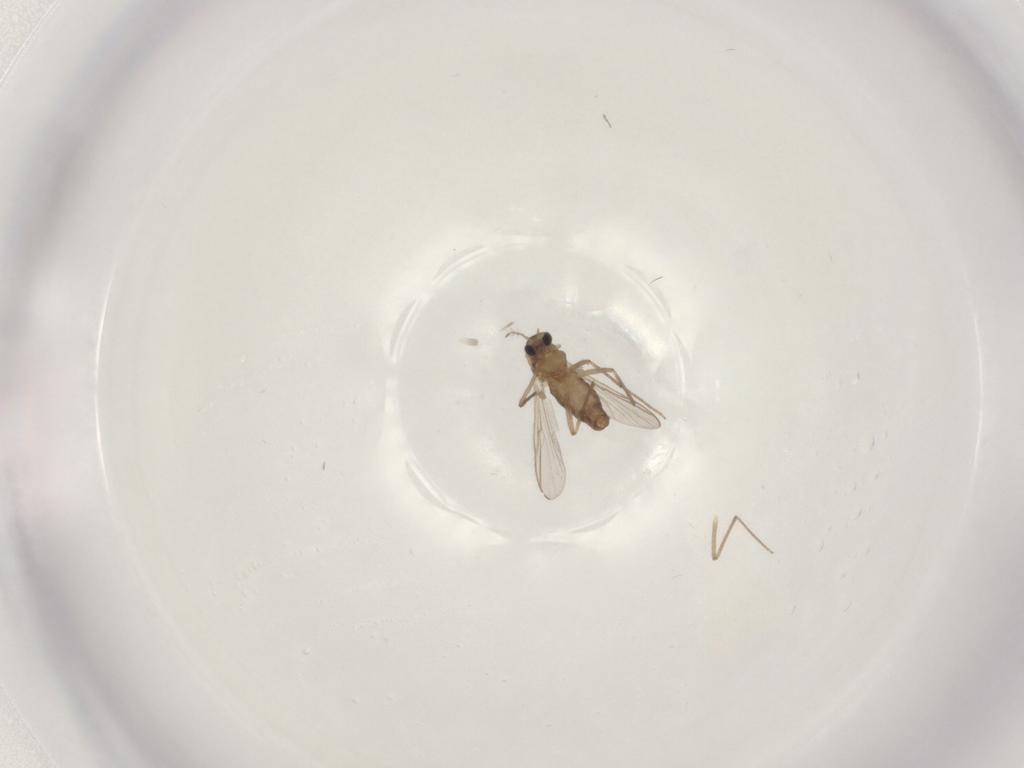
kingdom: Animalia
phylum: Arthropoda
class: Insecta
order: Diptera
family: Chironomidae
